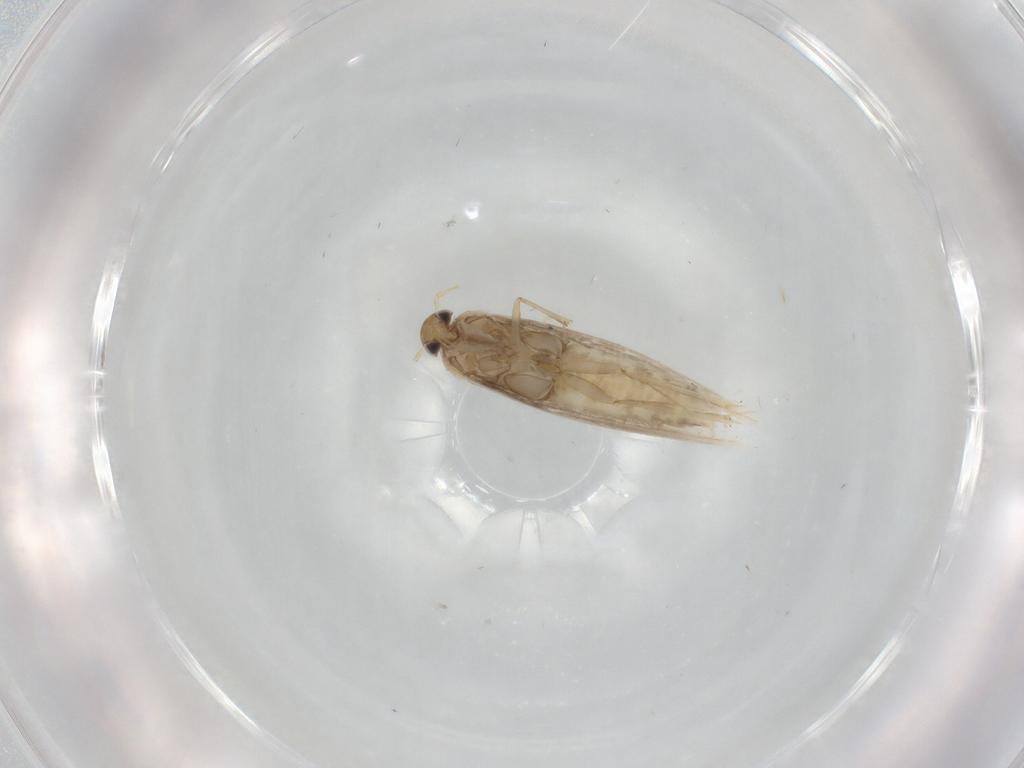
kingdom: Animalia
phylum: Arthropoda
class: Insecta
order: Lepidoptera
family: Gracillariidae
